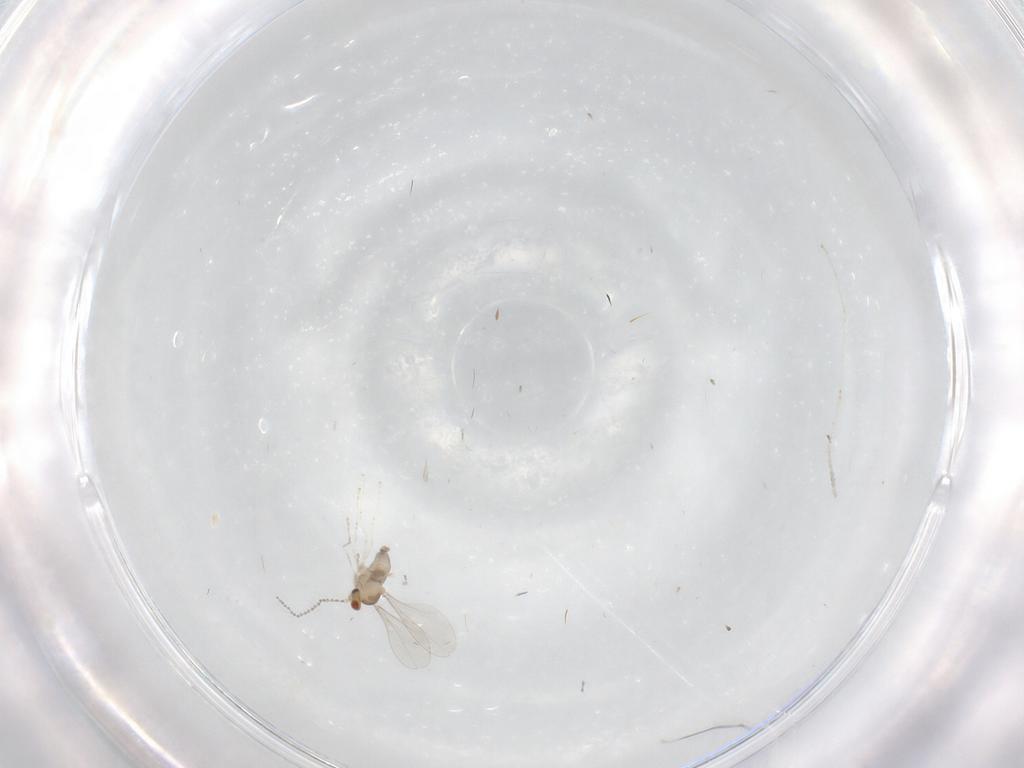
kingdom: Animalia
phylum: Arthropoda
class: Insecta
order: Diptera
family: Cecidomyiidae
